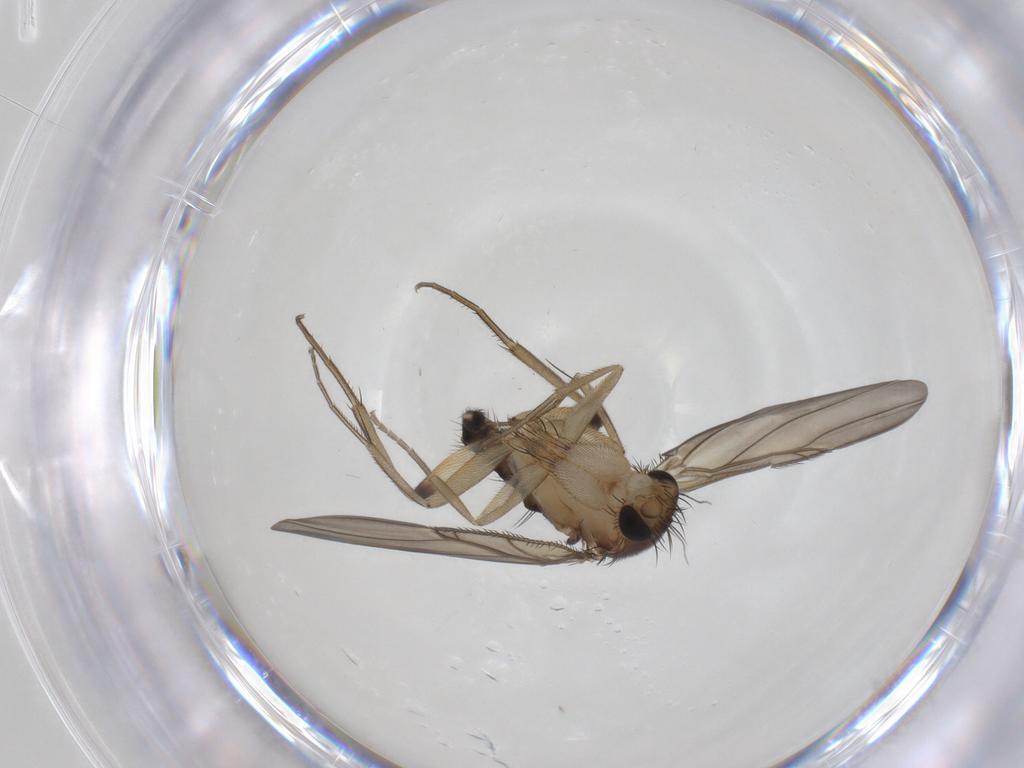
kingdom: Animalia
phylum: Arthropoda
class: Insecta
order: Diptera
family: Phoridae
